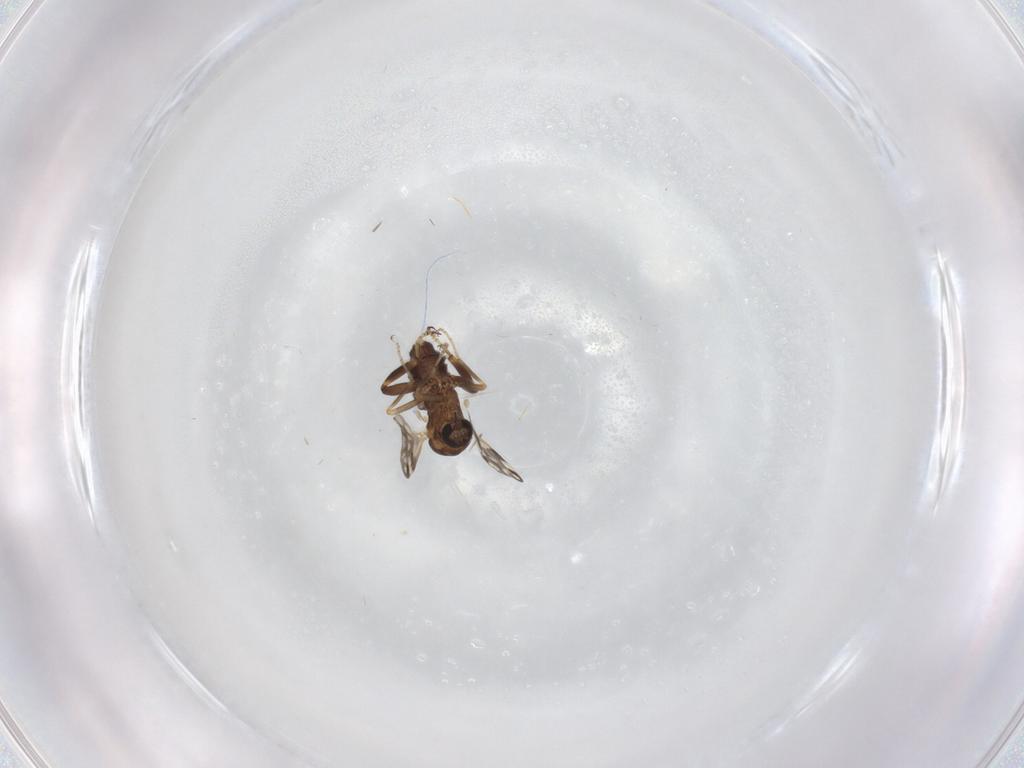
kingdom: Animalia
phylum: Arthropoda
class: Insecta
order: Diptera
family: Ceratopogonidae
